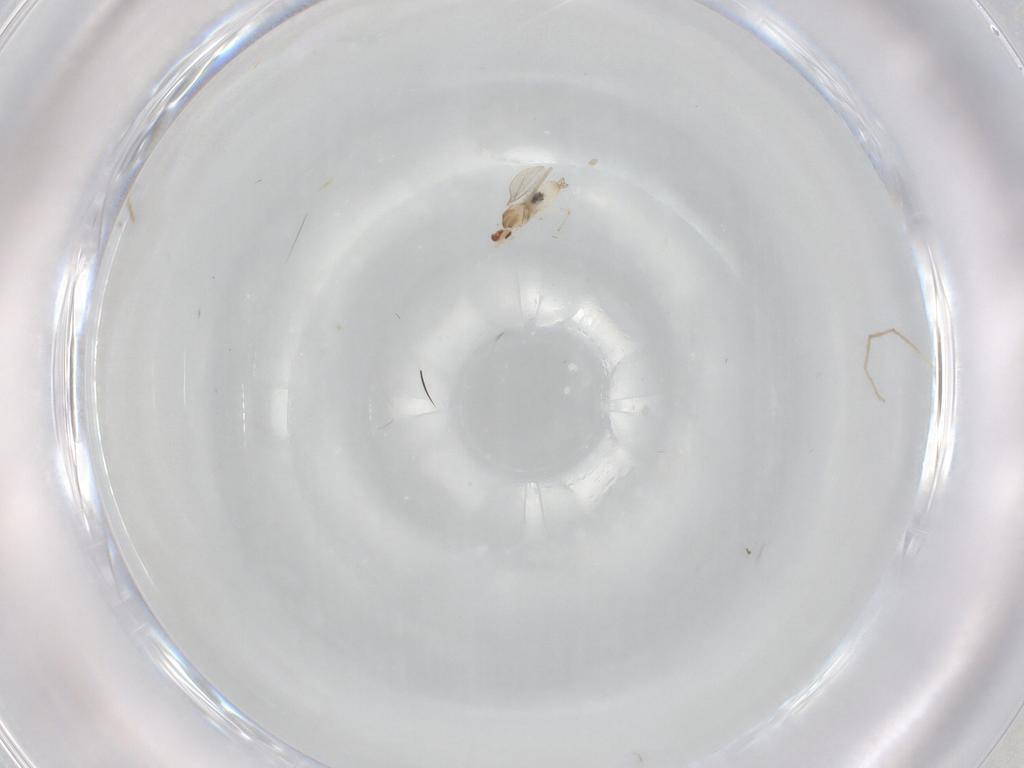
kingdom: Animalia
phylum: Arthropoda
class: Insecta
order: Diptera
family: Cecidomyiidae
